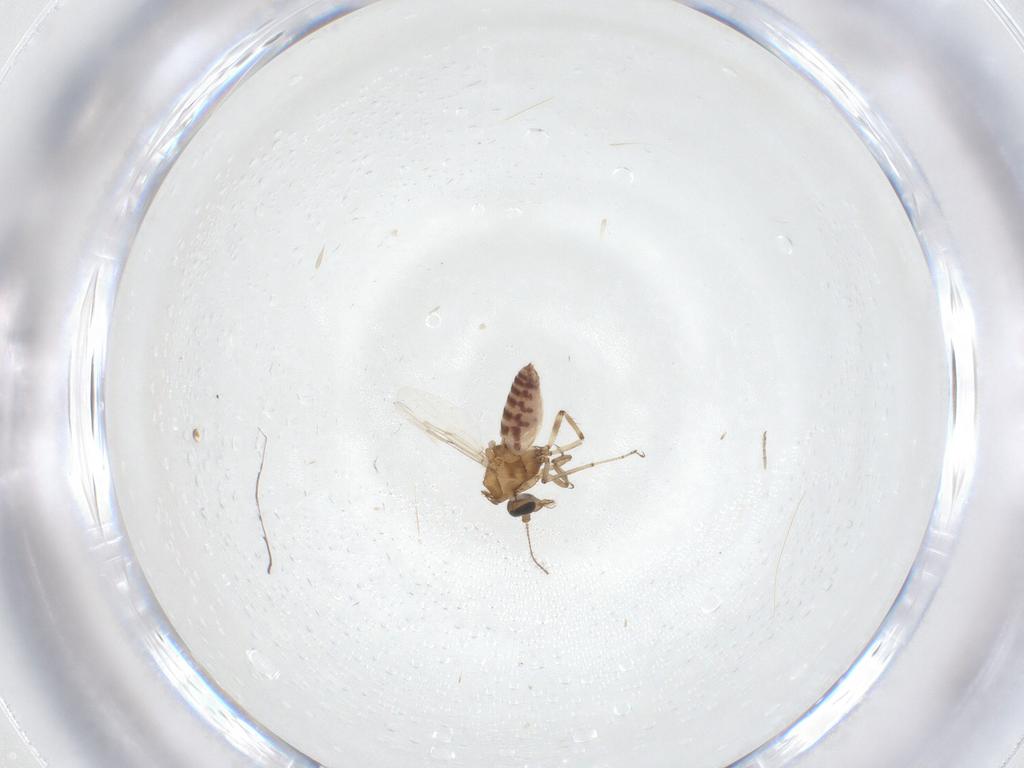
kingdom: Animalia
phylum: Arthropoda
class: Insecta
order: Diptera
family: Ceratopogonidae
